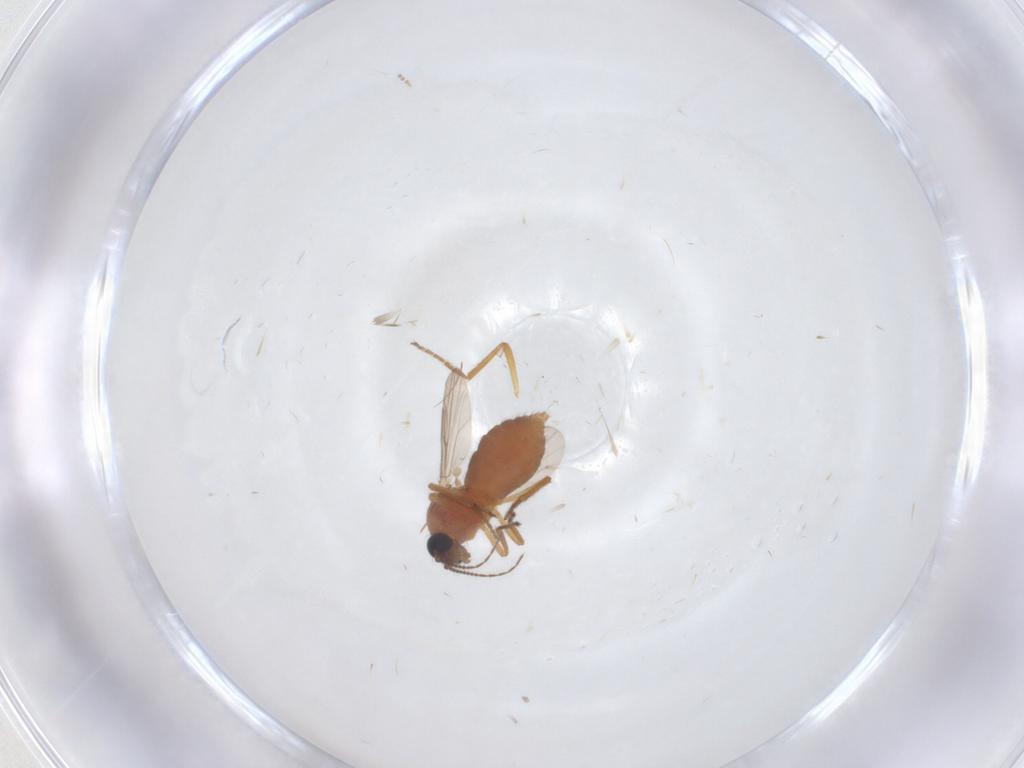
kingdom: Animalia
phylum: Arthropoda
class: Insecta
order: Diptera
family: Ceratopogonidae
